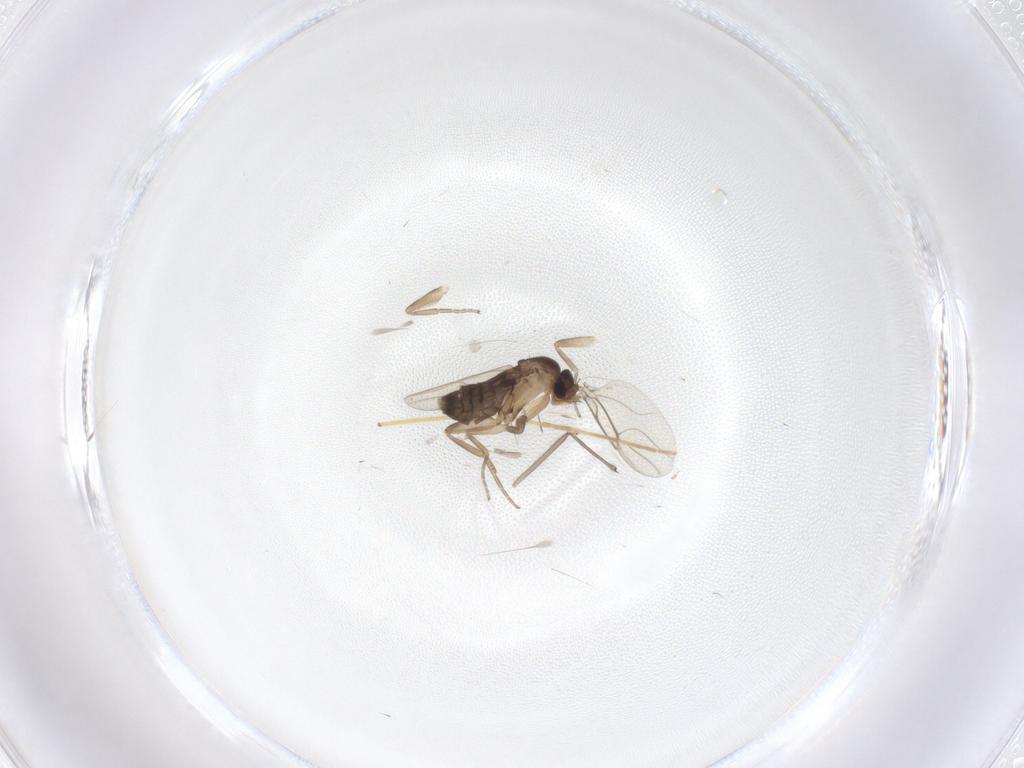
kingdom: Animalia
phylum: Arthropoda
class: Insecta
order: Diptera
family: Phoridae
